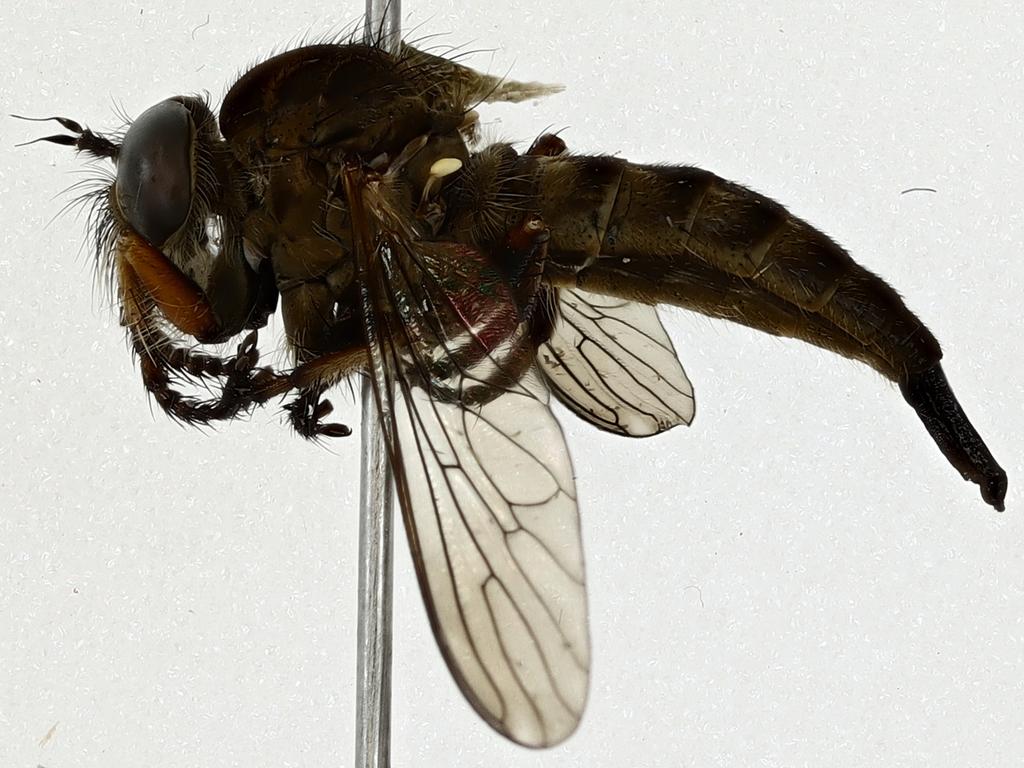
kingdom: Animalia
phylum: Arthropoda
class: Insecta
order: Diptera
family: Asilidae
